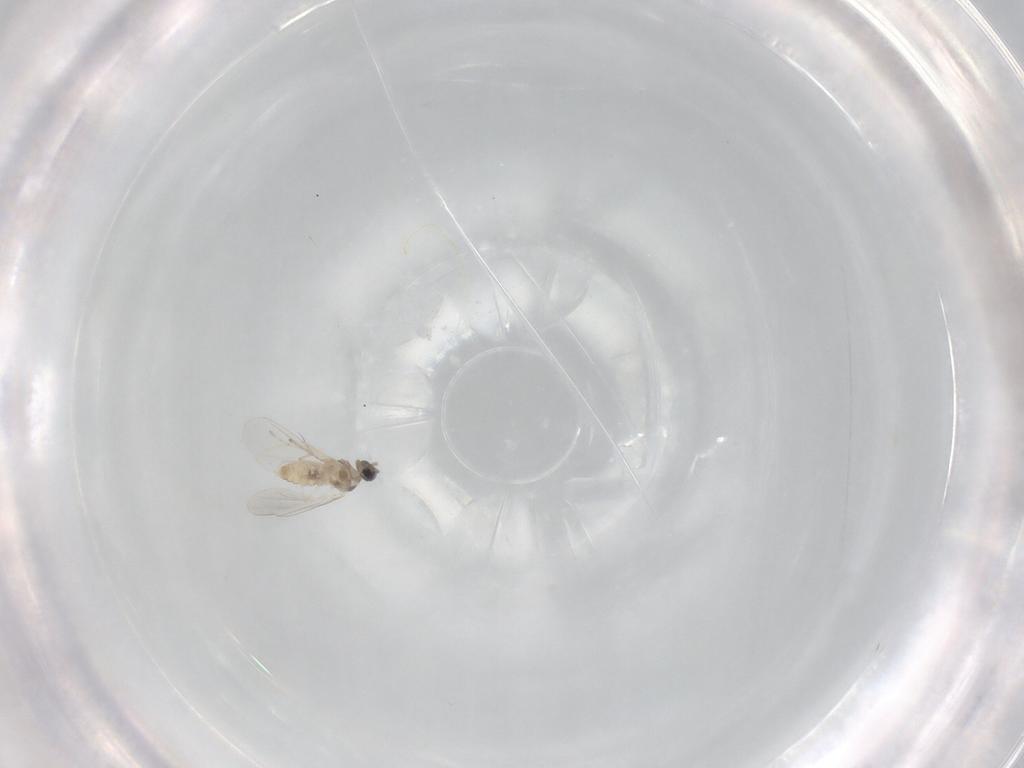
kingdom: Animalia
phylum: Arthropoda
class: Insecta
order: Diptera
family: Cecidomyiidae
